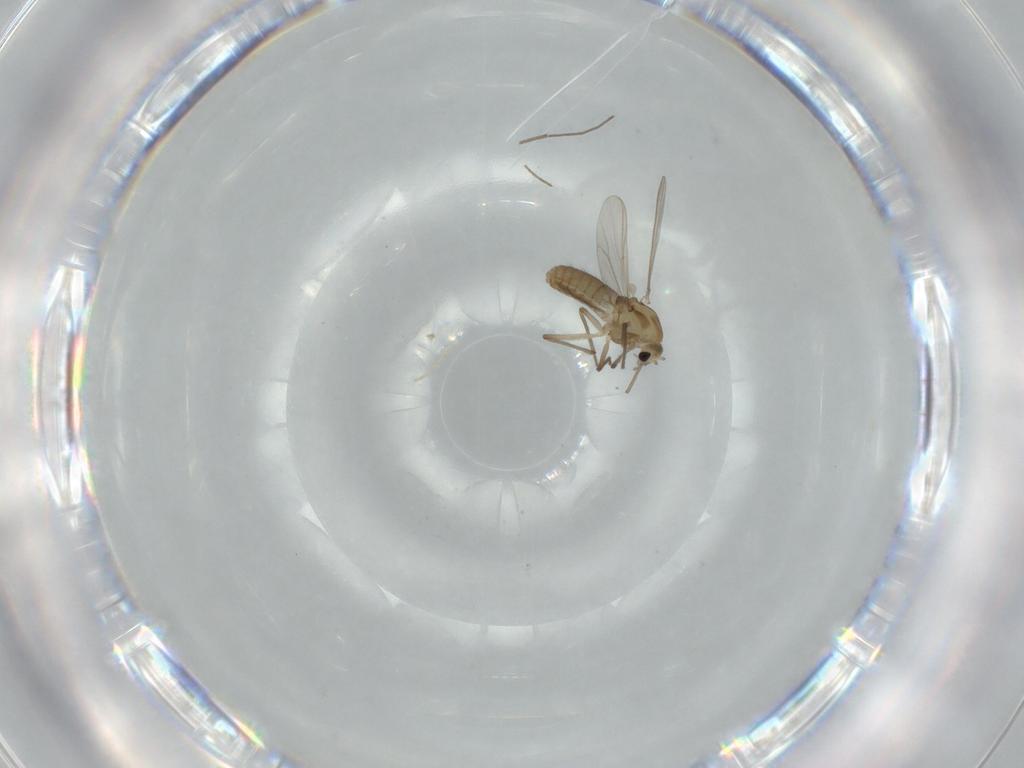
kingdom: Animalia
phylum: Arthropoda
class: Insecta
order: Diptera
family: Chironomidae
